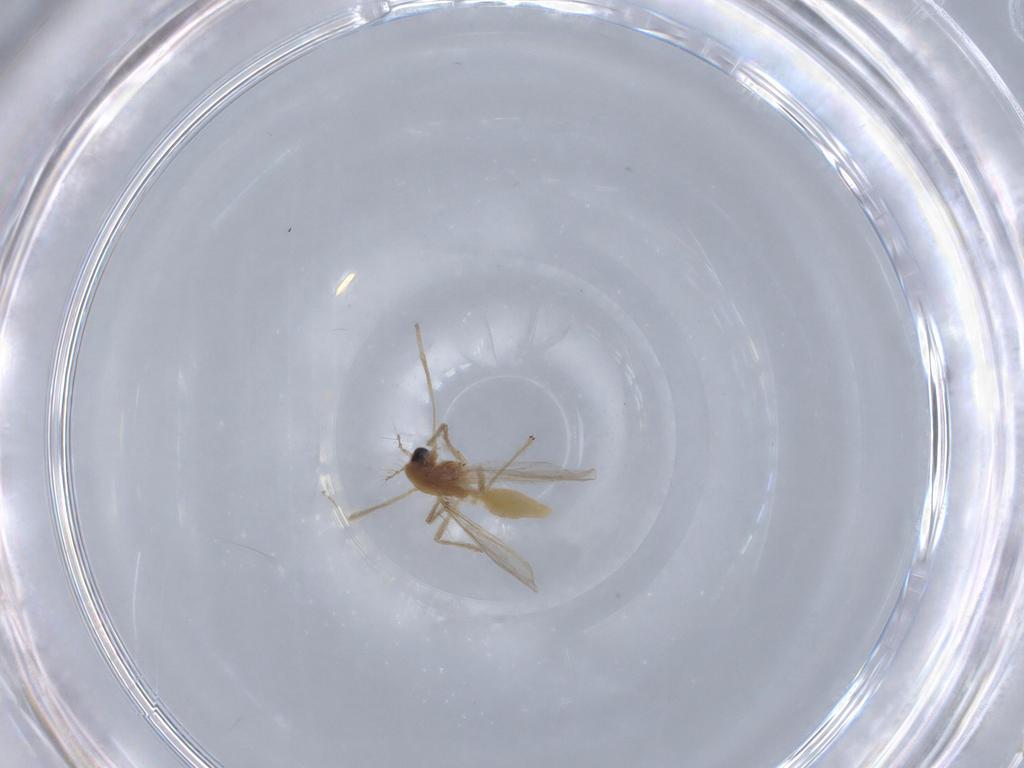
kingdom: Animalia
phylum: Arthropoda
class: Insecta
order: Diptera
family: Chironomidae
